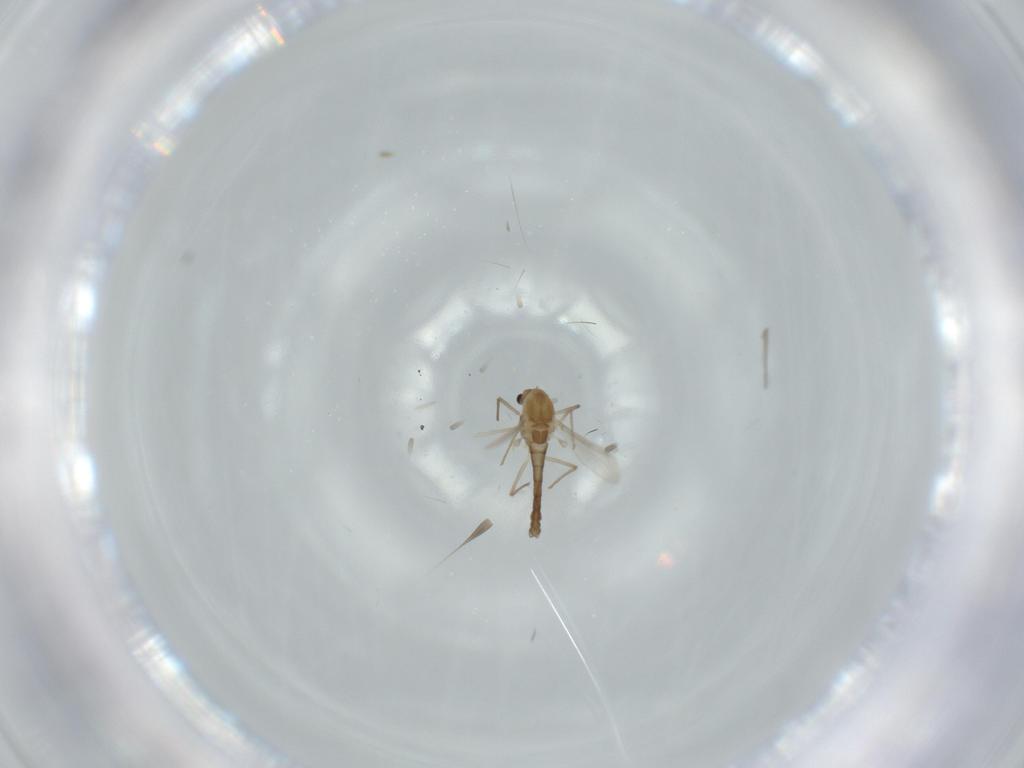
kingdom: Animalia
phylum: Arthropoda
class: Insecta
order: Diptera
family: Chironomidae
